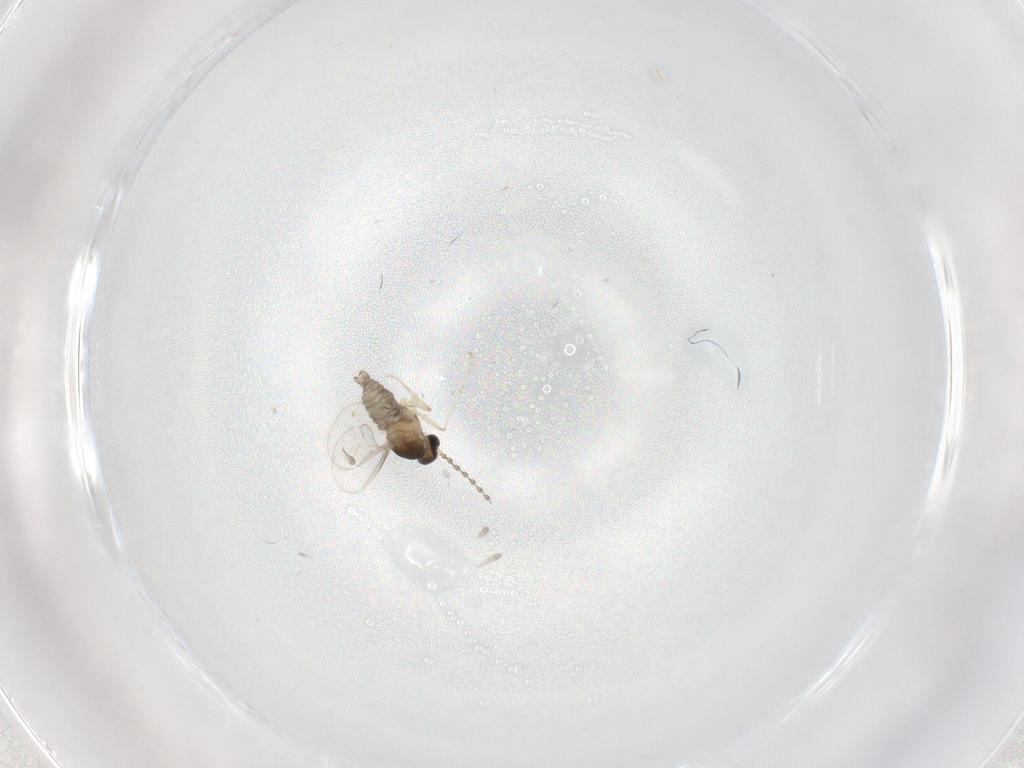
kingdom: Animalia
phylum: Arthropoda
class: Insecta
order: Diptera
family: Cecidomyiidae
